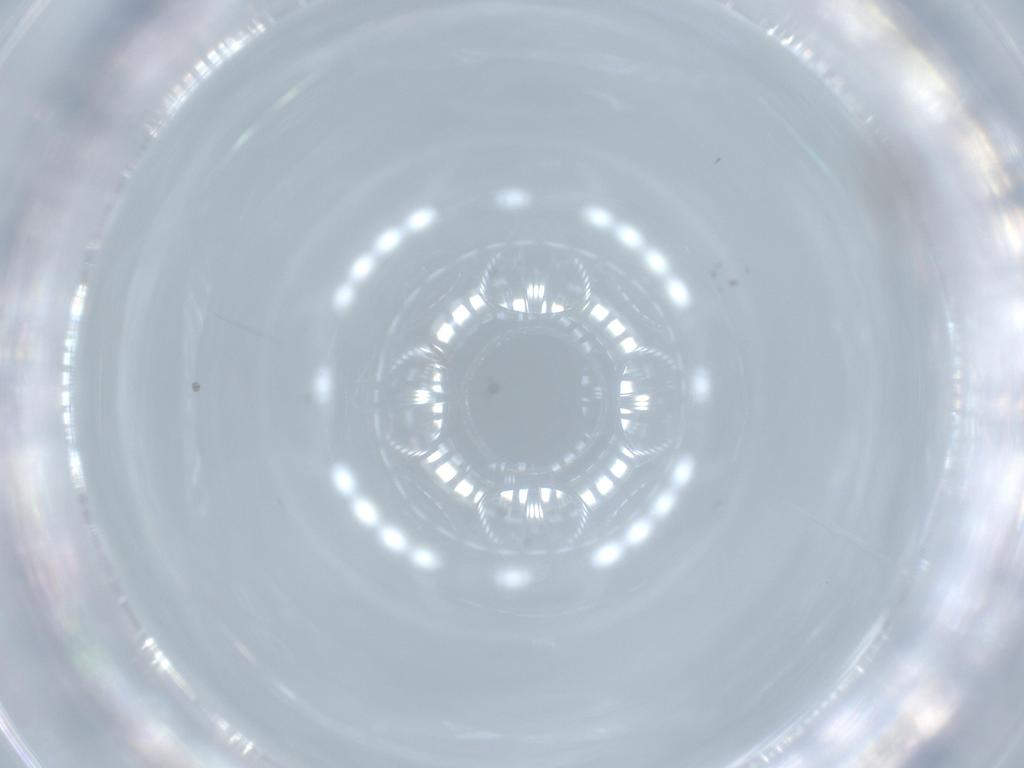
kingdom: Animalia
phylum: Arthropoda
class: Insecta
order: Diptera
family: Cecidomyiidae
